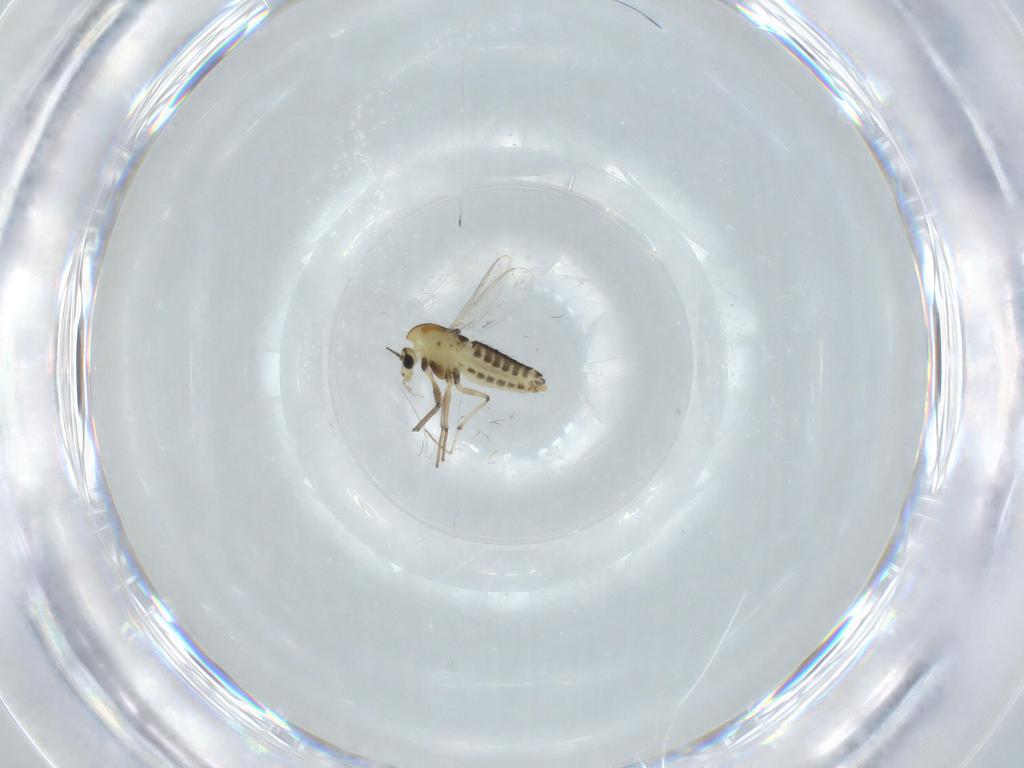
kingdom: Animalia
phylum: Arthropoda
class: Insecta
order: Diptera
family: Chironomidae
